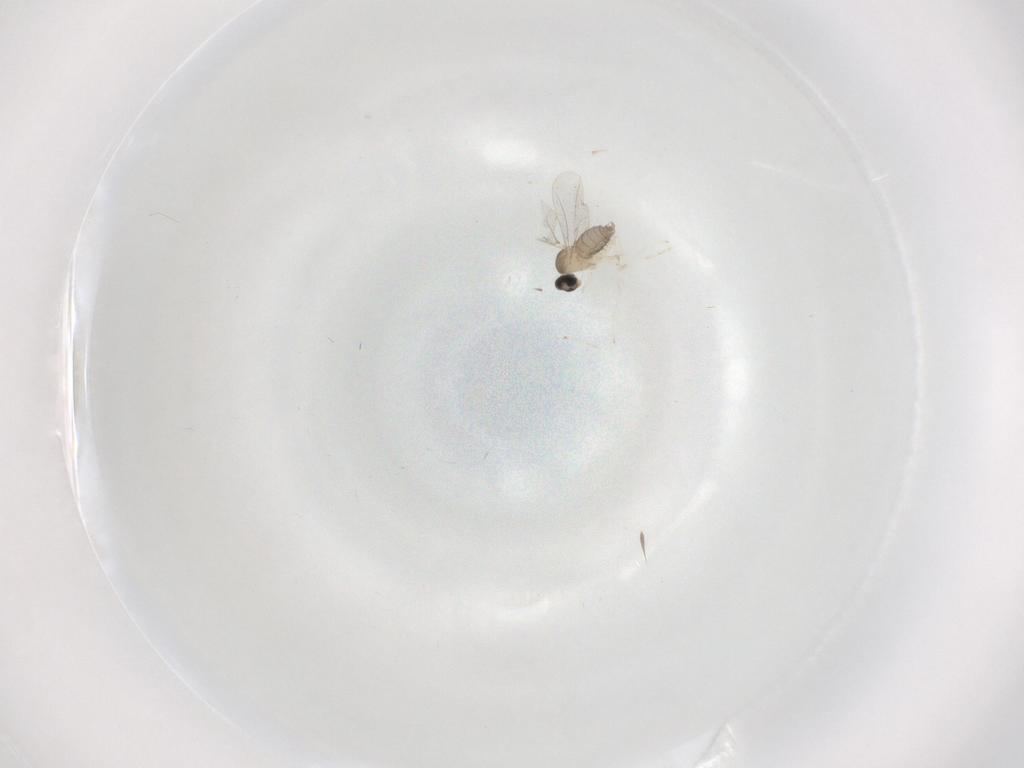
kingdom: Animalia
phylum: Arthropoda
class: Insecta
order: Diptera
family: Cecidomyiidae
